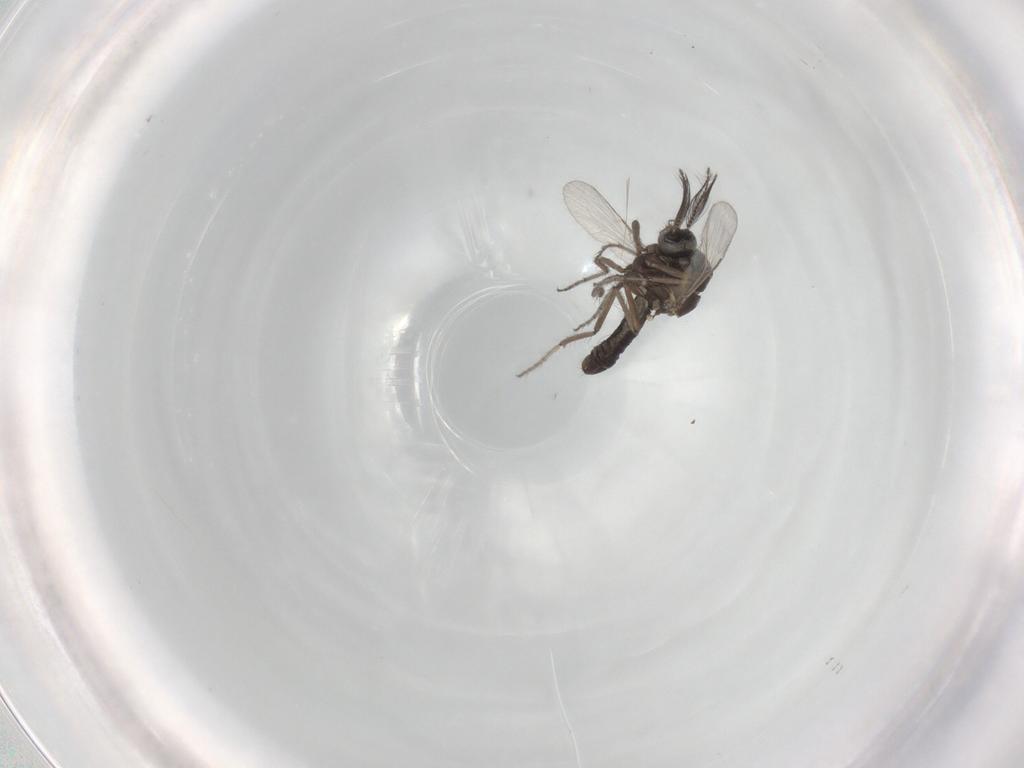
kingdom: Animalia
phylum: Arthropoda
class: Insecta
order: Diptera
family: Ceratopogonidae
